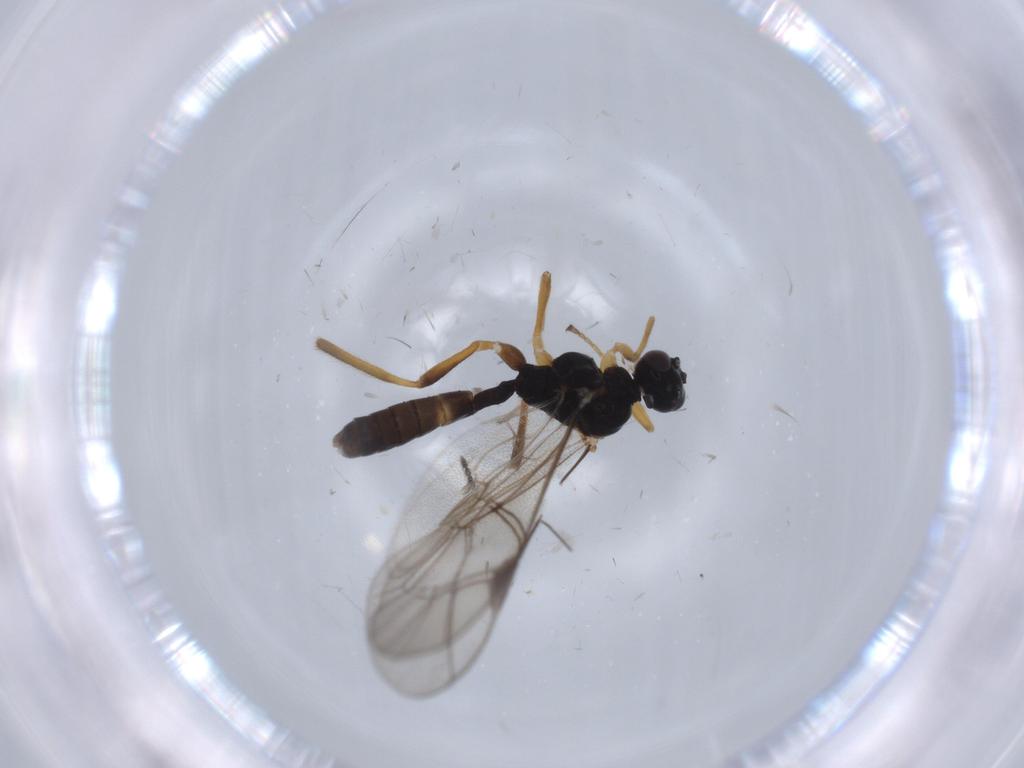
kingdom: Animalia
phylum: Arthropoda
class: Insecta
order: Hymenoptera
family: Ichneumonidae
